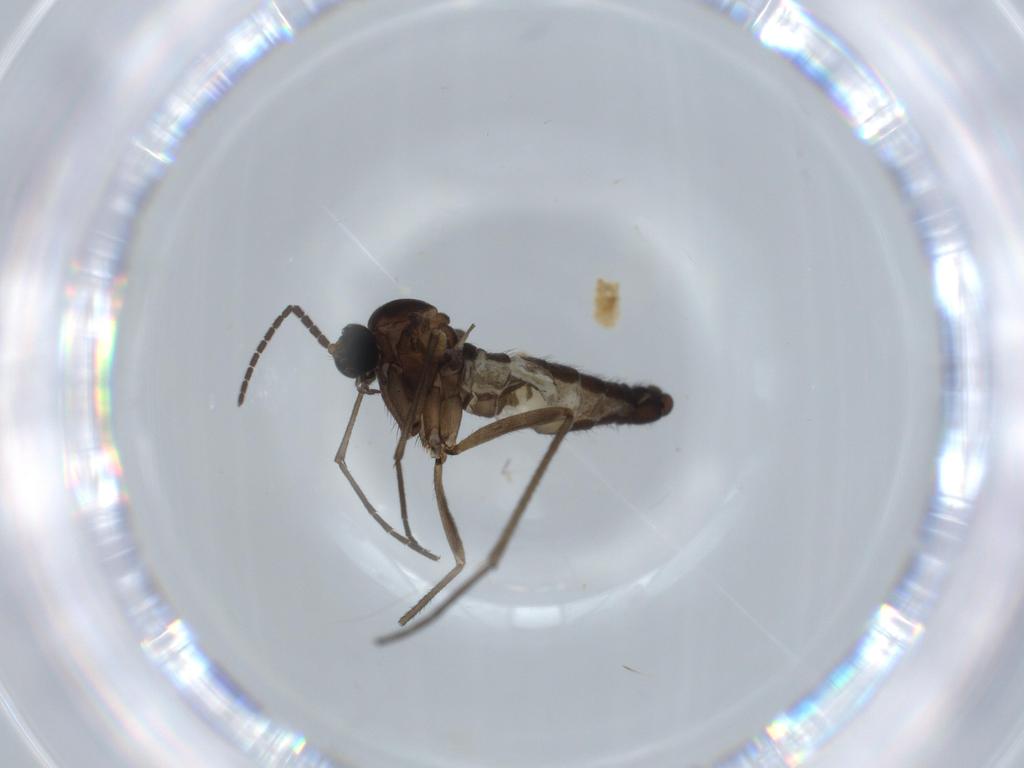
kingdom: Animalia
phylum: Arthropoda
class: Insecta
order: Diptera
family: Sciaridae
